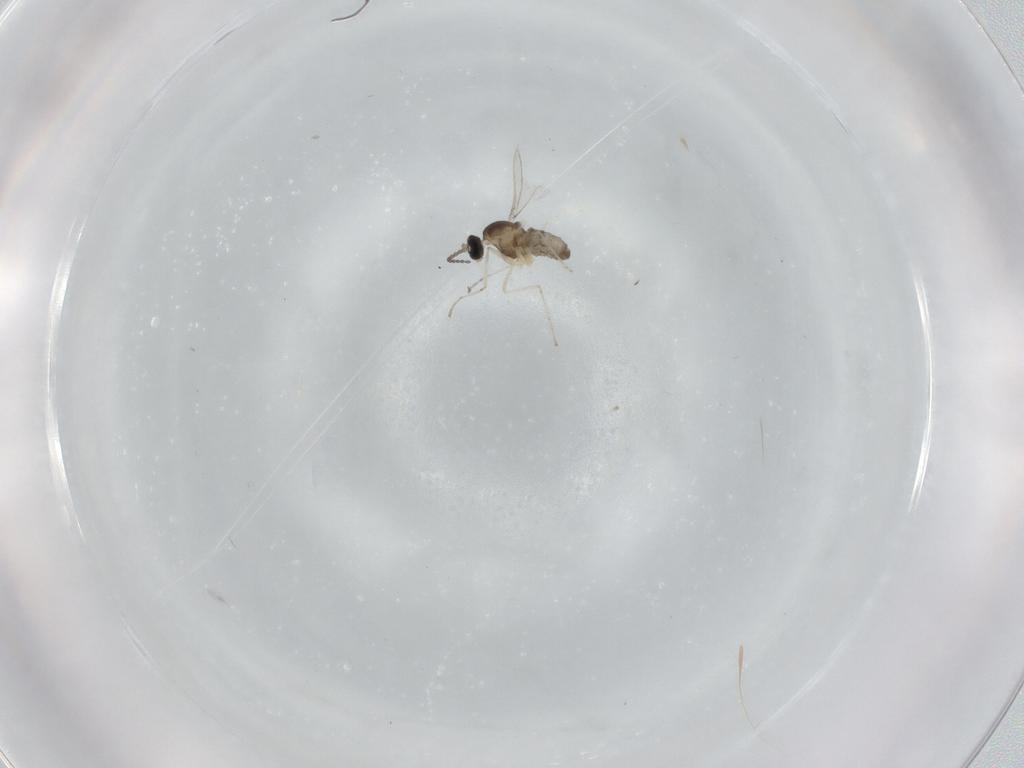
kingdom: Animalia
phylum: Arthropoda
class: Insecta
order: Diptera
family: Cecidomyiidae
